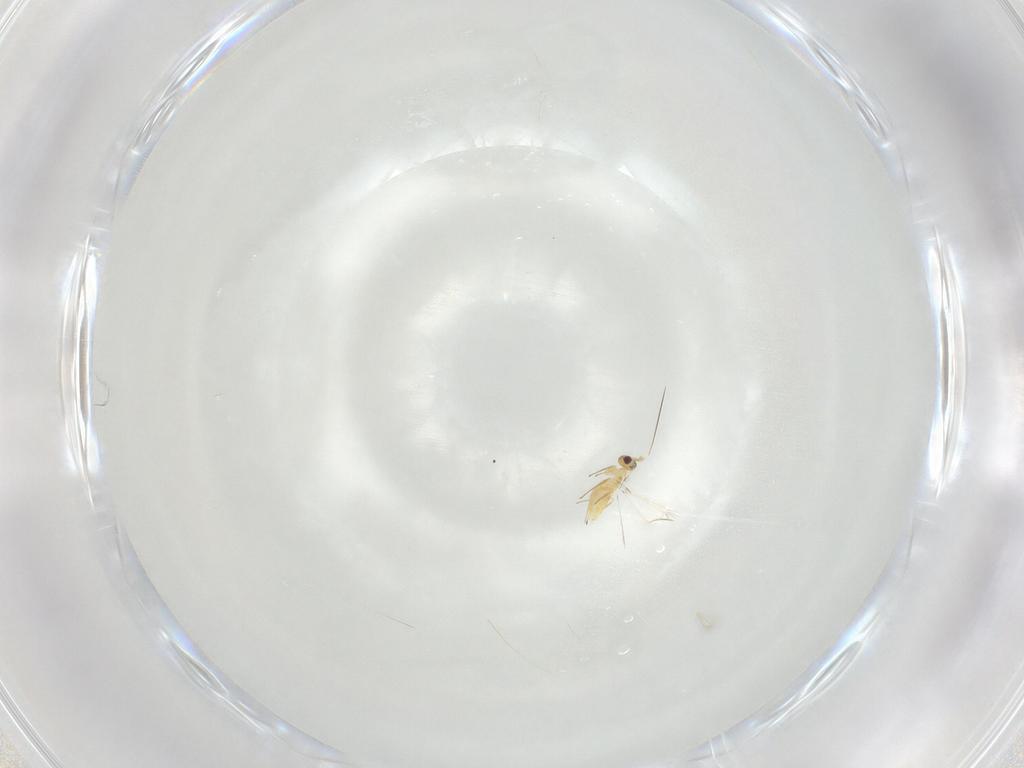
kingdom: Animalia
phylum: Arthropoda
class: Insecta
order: Hymenoptera
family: Mymaridae
